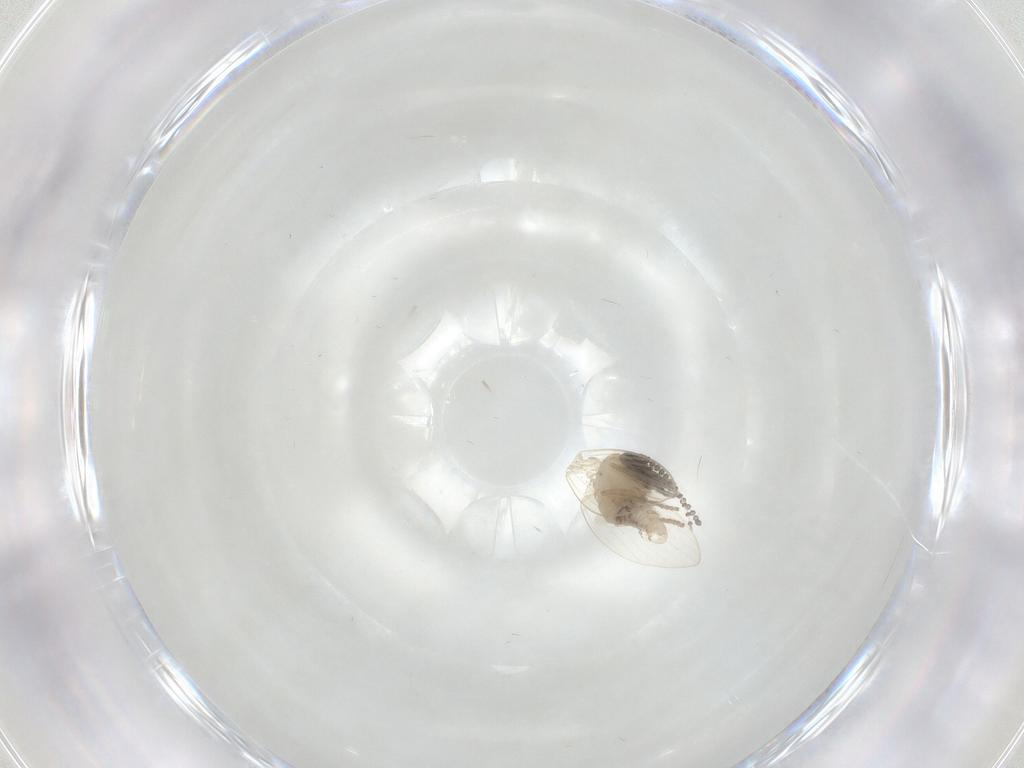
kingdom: Animalia
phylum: Arthropoda
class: Insecta
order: Diptera
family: Psychodidae
